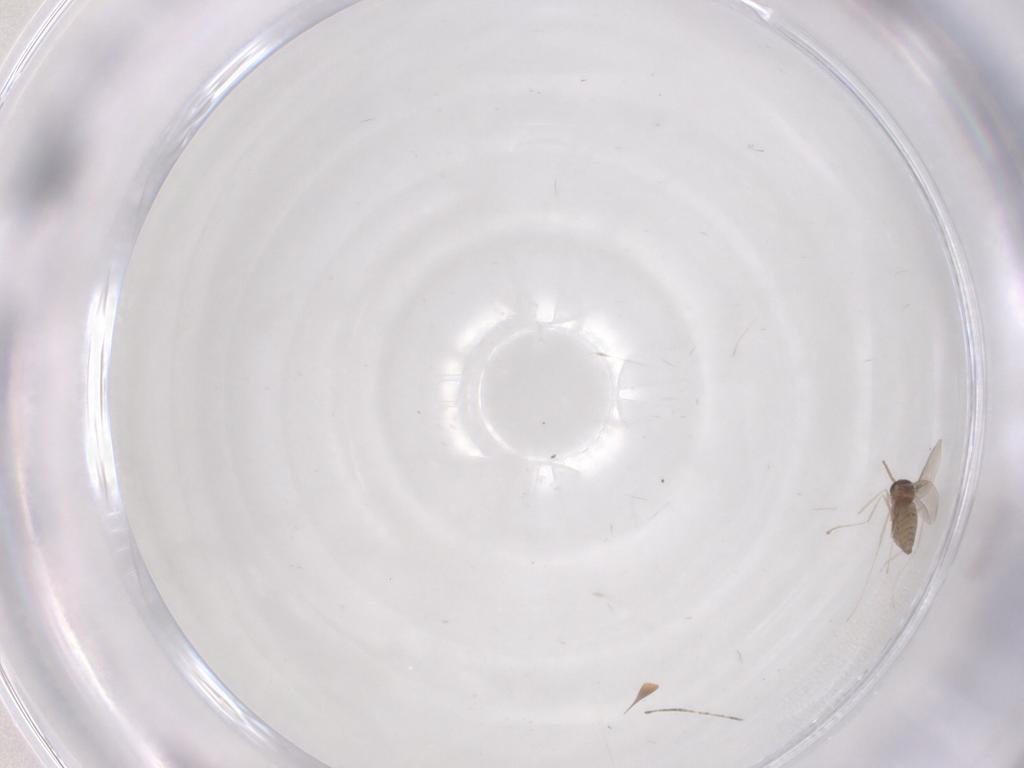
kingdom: Animalia
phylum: Arthropoda
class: Insecta
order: Diptera
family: Cecidomyiidae
